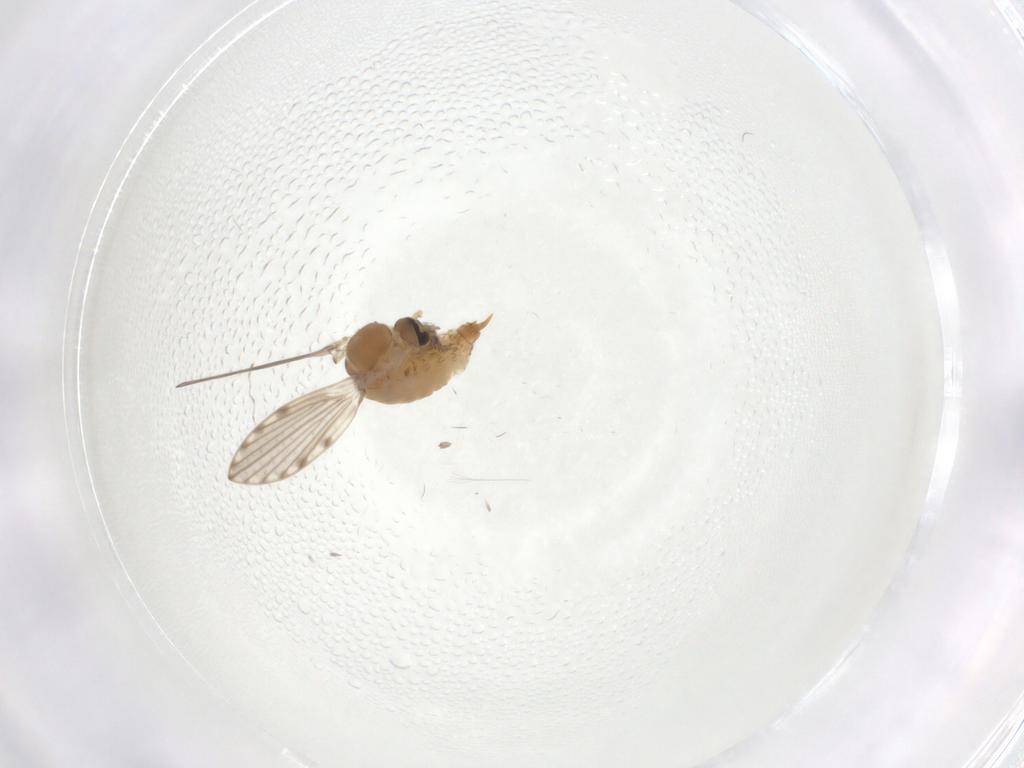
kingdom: Animalia
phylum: Arthropoda
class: Insecta
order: Diptera
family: Psychodidae
